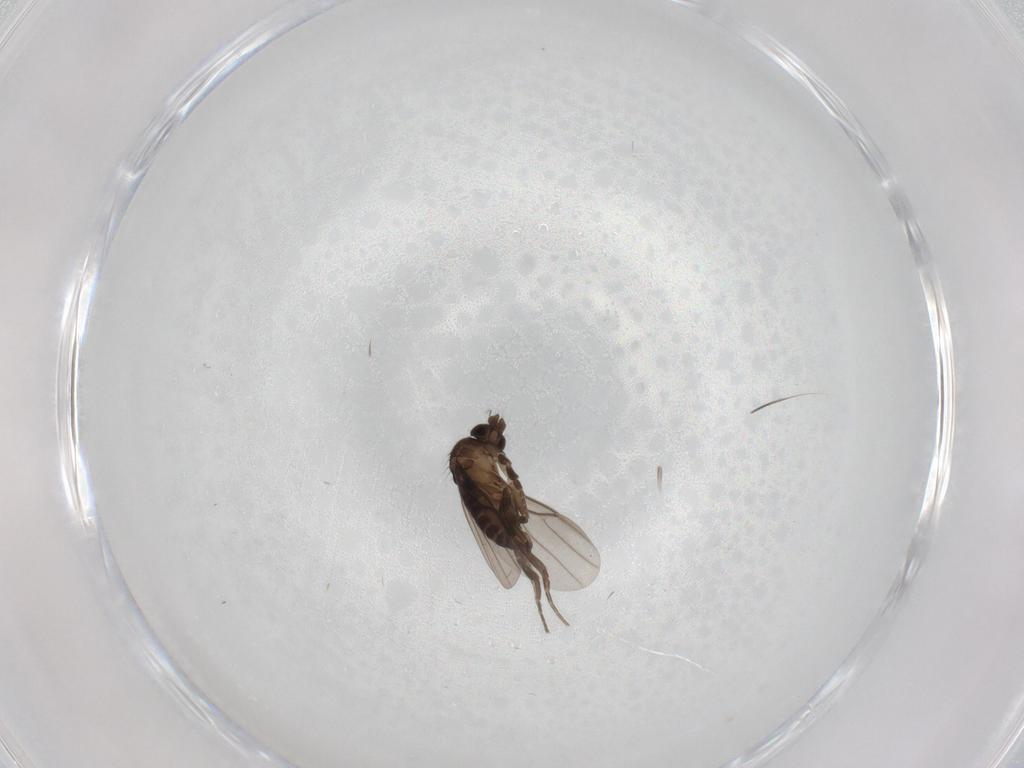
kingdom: Animalia
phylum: Arthropoda
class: Insecta
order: Diptera
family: Phoridae
